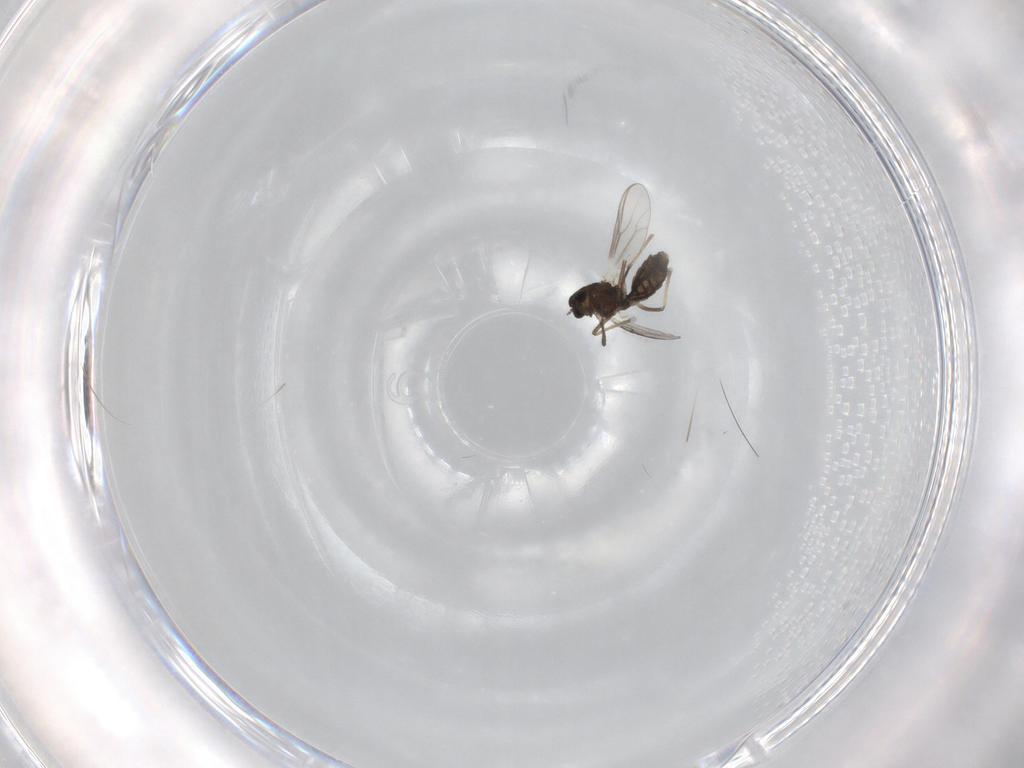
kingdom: Animalia
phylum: Arthropoda
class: Insecta
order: Diptera
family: Chironomidae
